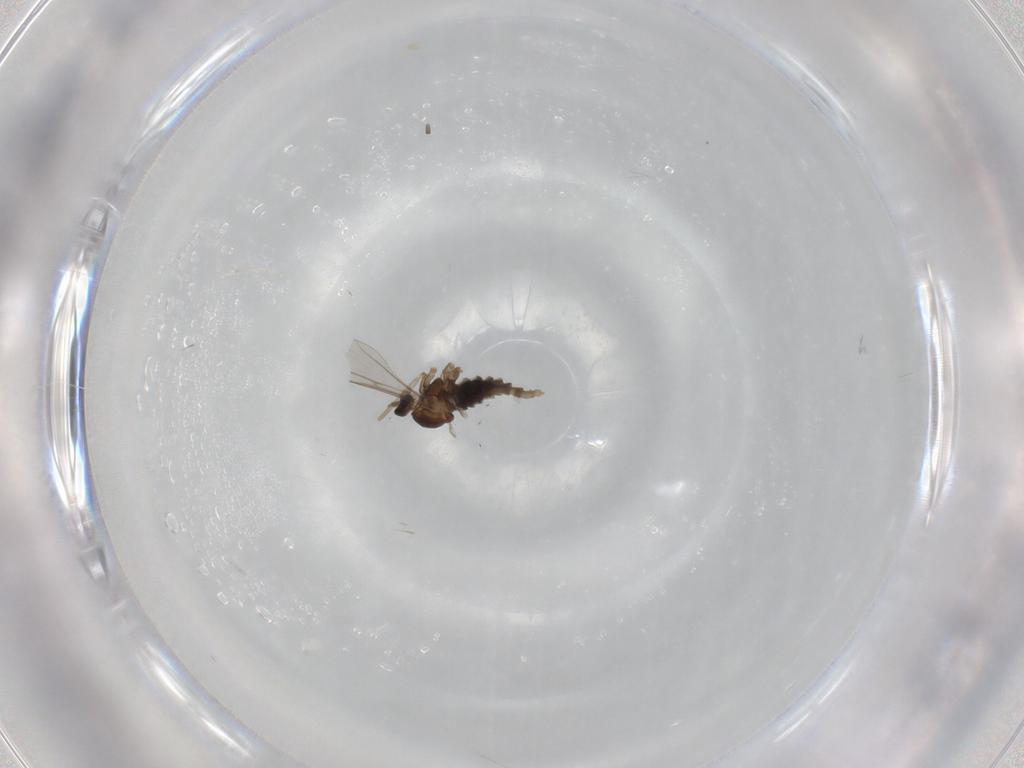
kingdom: Animalia
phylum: Arthropoda
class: Insecta
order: Diptera
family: Cecidomyiidae
